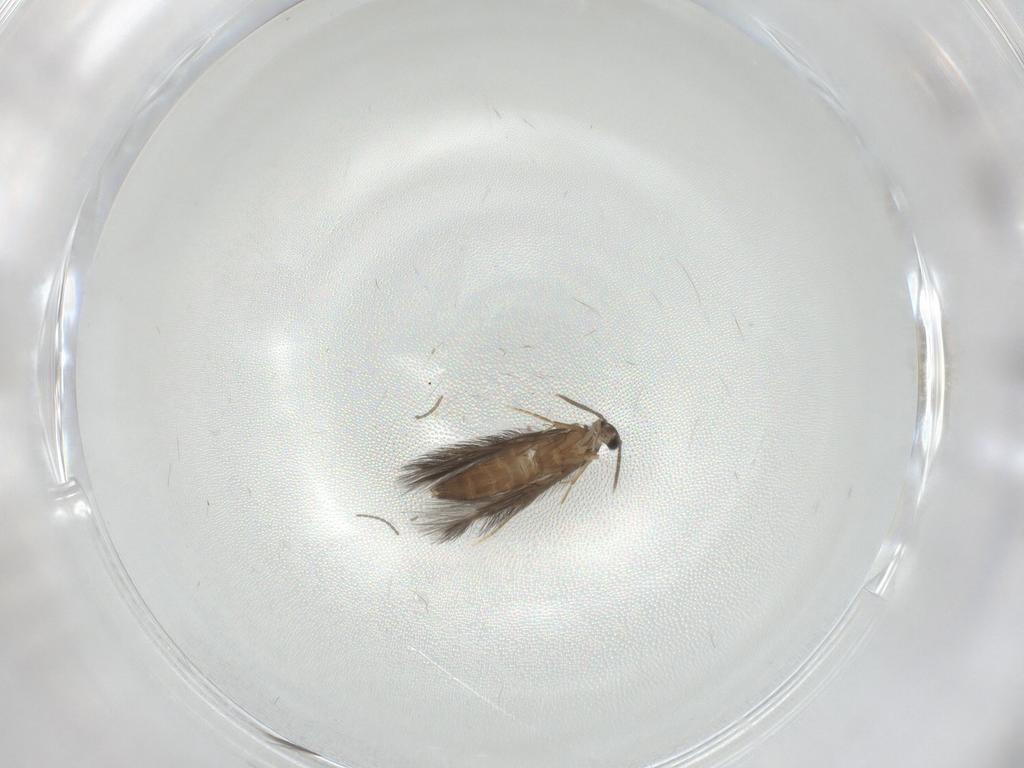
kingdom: Animalia
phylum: Arthropoda
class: Insecta
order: Trichoptera
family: Hydroptilidae
